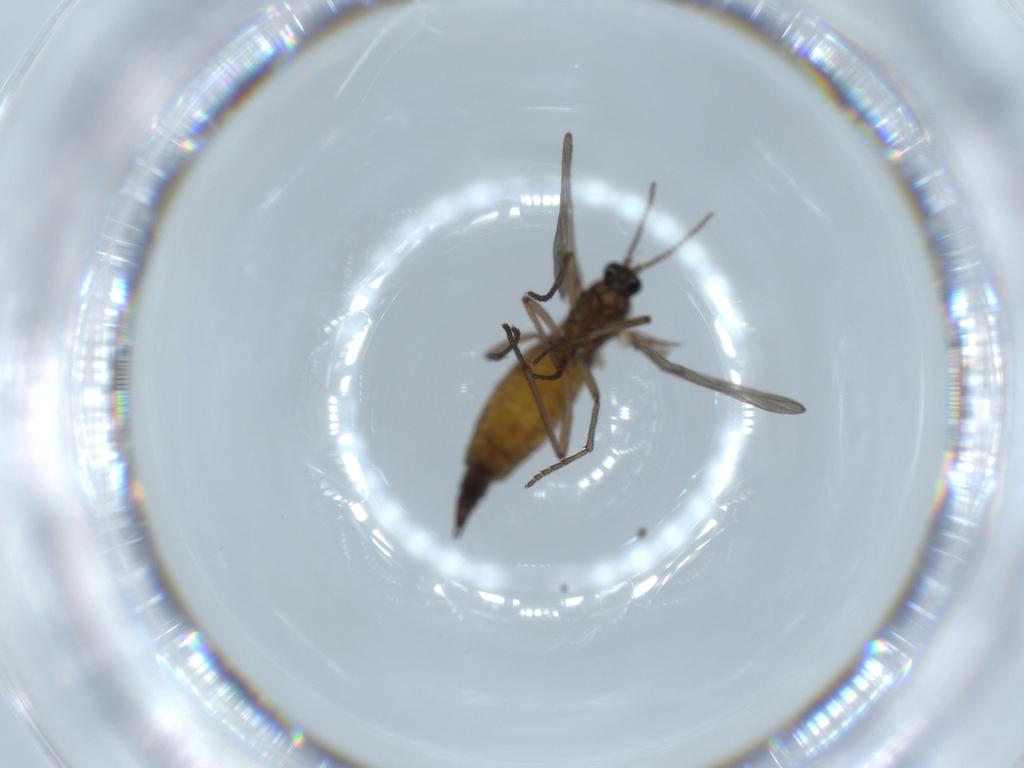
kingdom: Animalia
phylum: Arthropoda
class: Insecta
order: Diptera
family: Sciaridae
